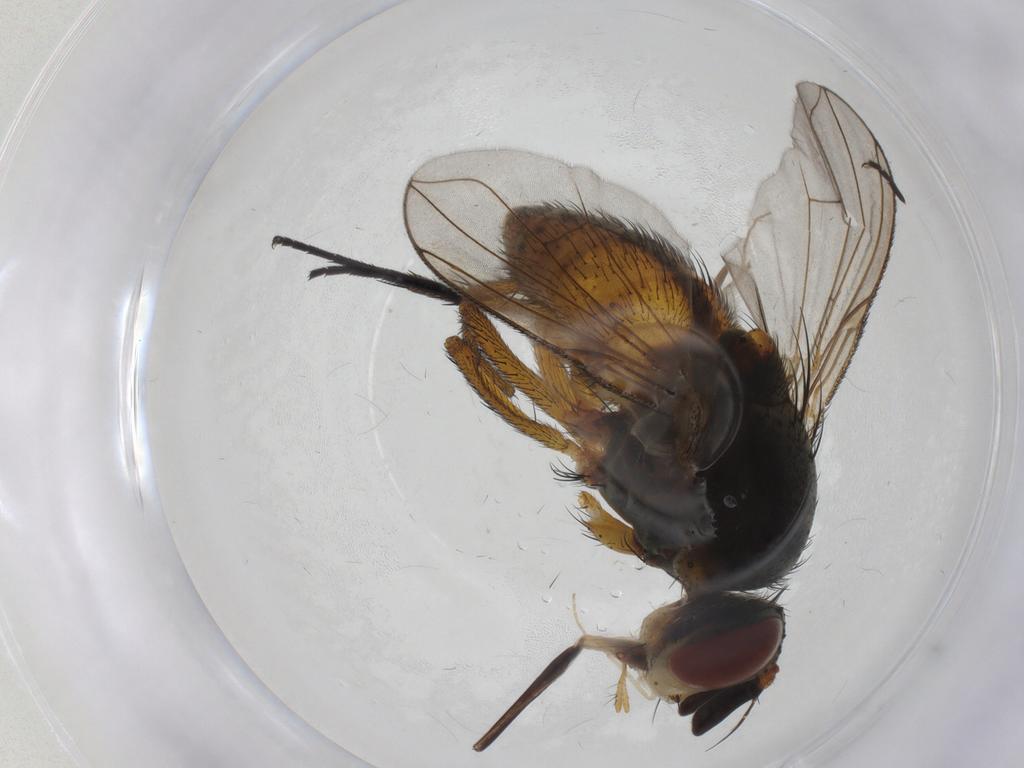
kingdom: Animalia
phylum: Arthropoda
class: Insecta
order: Diptera
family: Tachinidae
